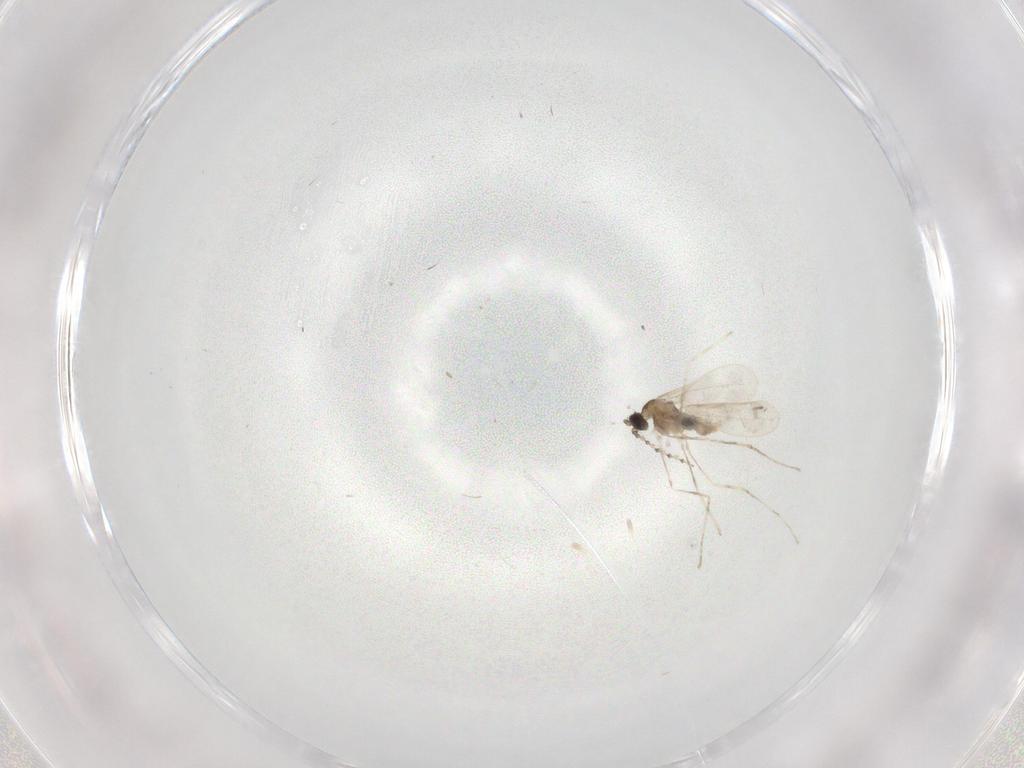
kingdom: Animalia
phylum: Arthropoda
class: Insecta
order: Diptera
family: Cecidomyiidae
